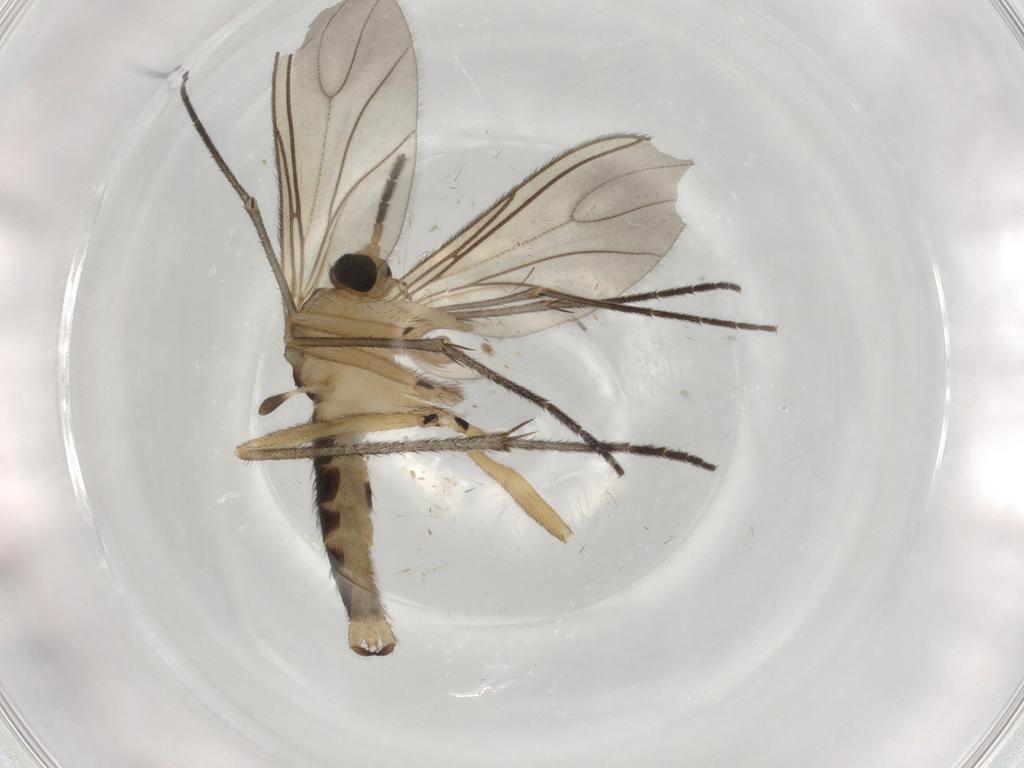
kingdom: Animalia
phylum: Arthropoda
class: Insecta
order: Diptera
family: Sciaridae
